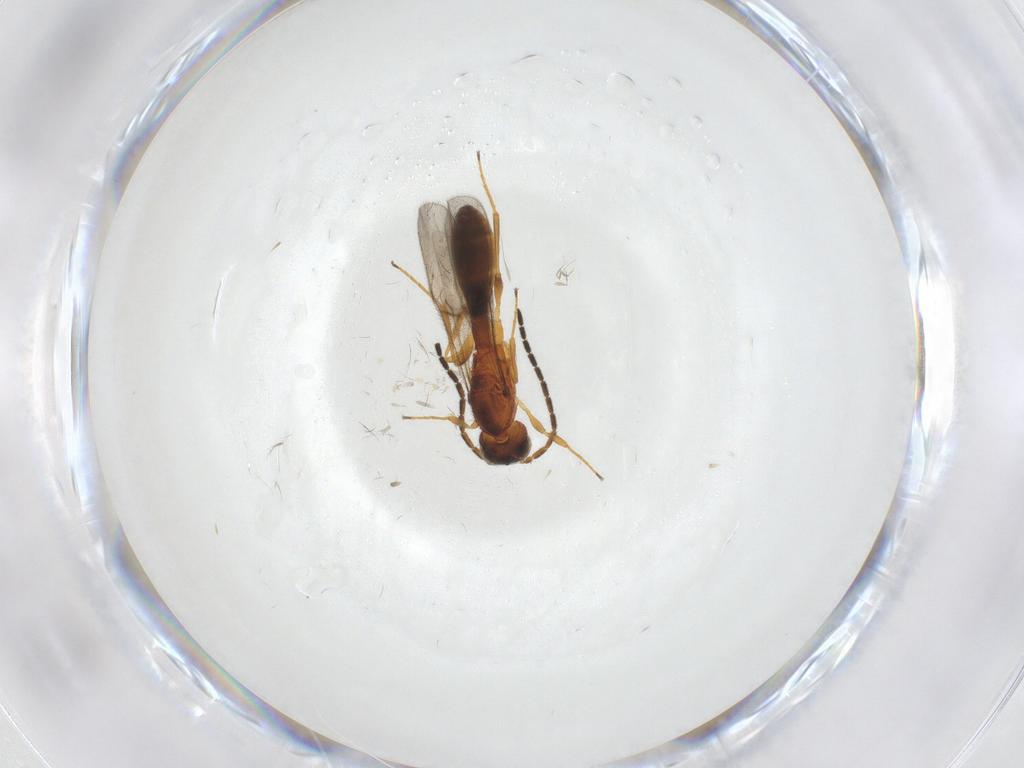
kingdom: Animalia
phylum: Arthropoda
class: Insecta
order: Hymenoptera
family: Scelionidae
